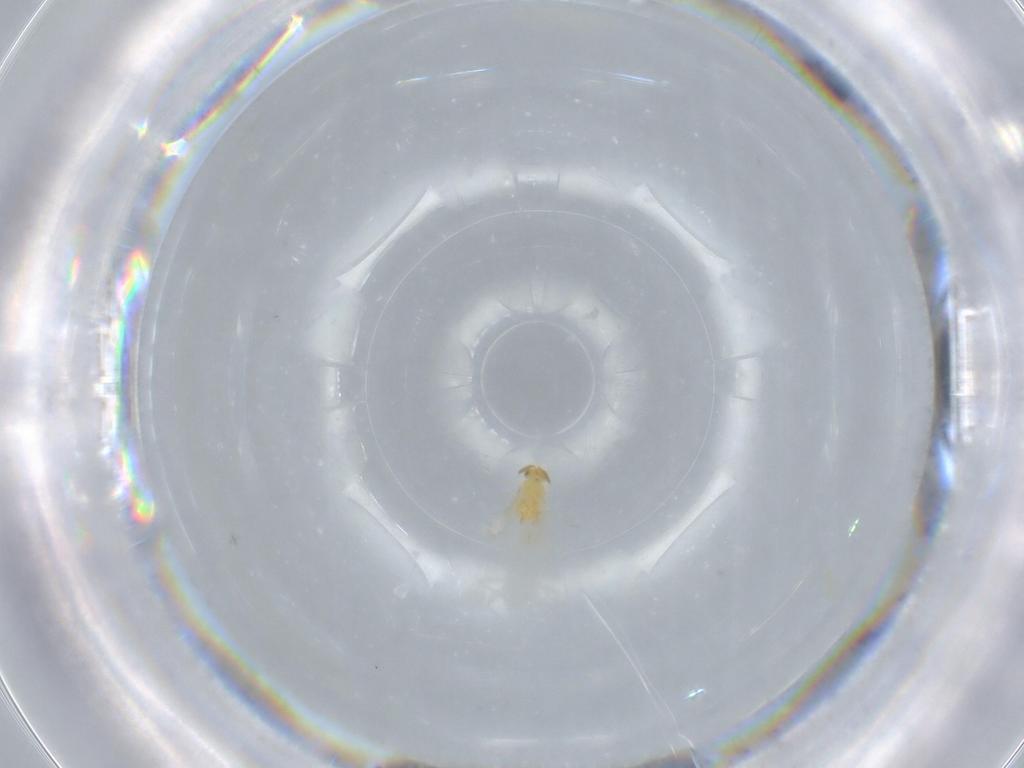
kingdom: Animalia
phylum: Arthropoda
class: Insecta
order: Hymenoptera
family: Aphelinidae
